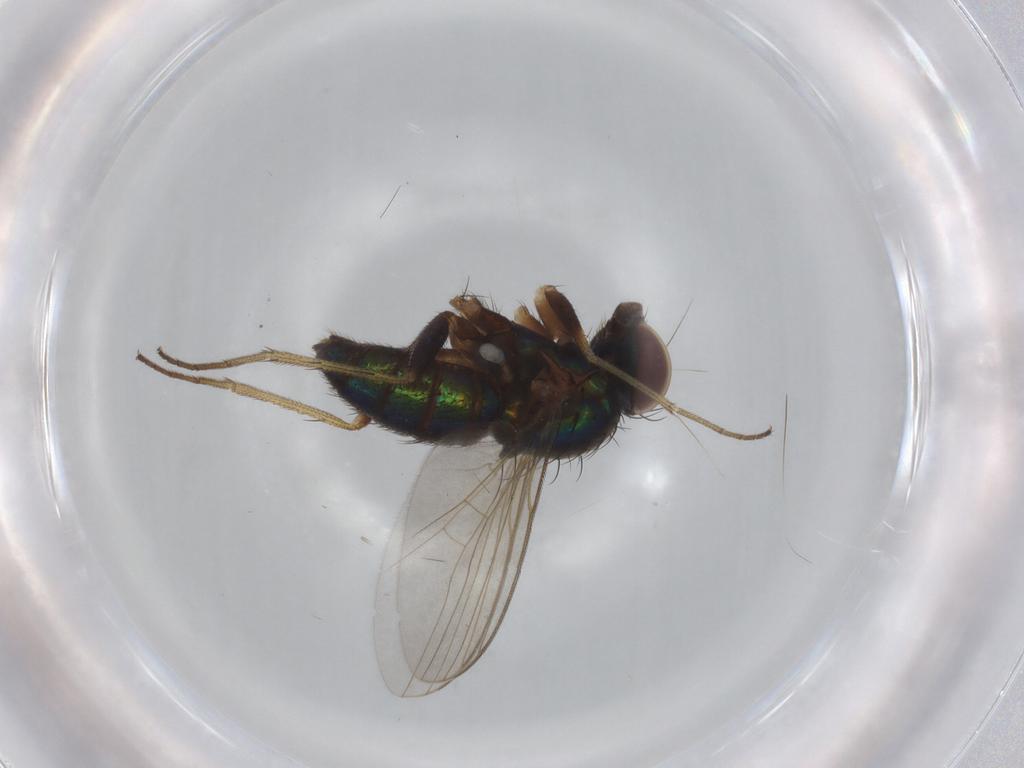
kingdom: Animalia
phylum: Arthropoda
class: Insecta
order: Diptera
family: Dolichopodidae
